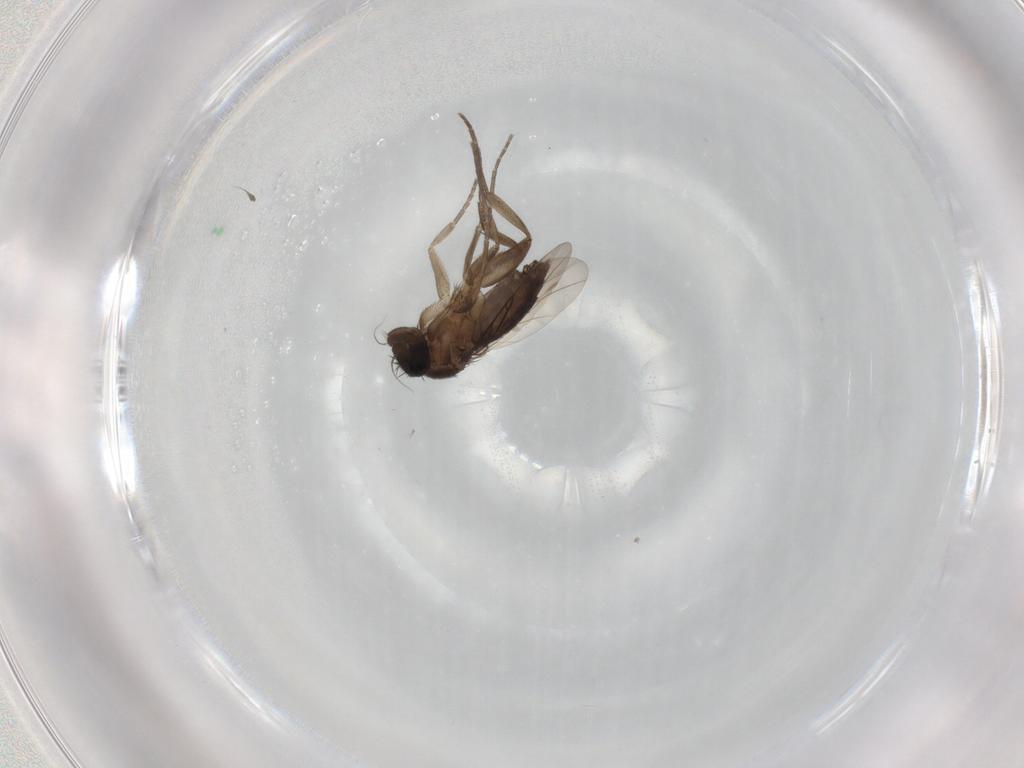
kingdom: Animalia
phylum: Arthropoda
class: Insecta
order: Diptera
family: Phoridae
